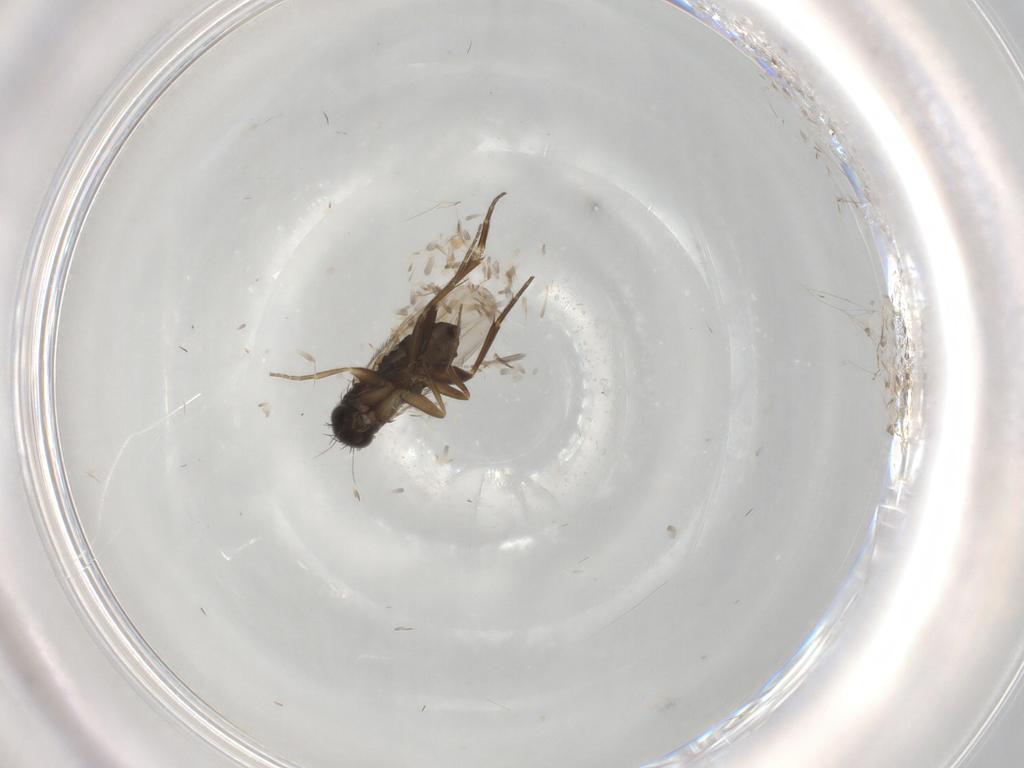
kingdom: Animalia
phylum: Arthropoda
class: Insecta
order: Diptera
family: Phoridae
